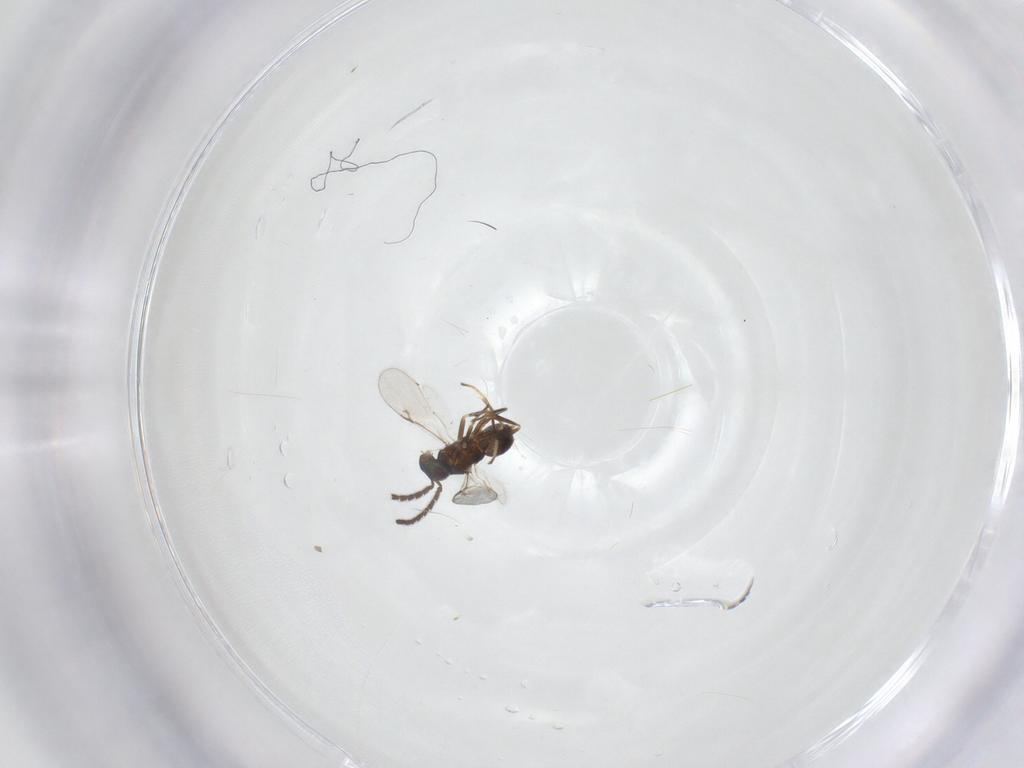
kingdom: Animalia
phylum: Arthropoda
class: Insecta
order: Hymenoptera
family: Encyrtidae
